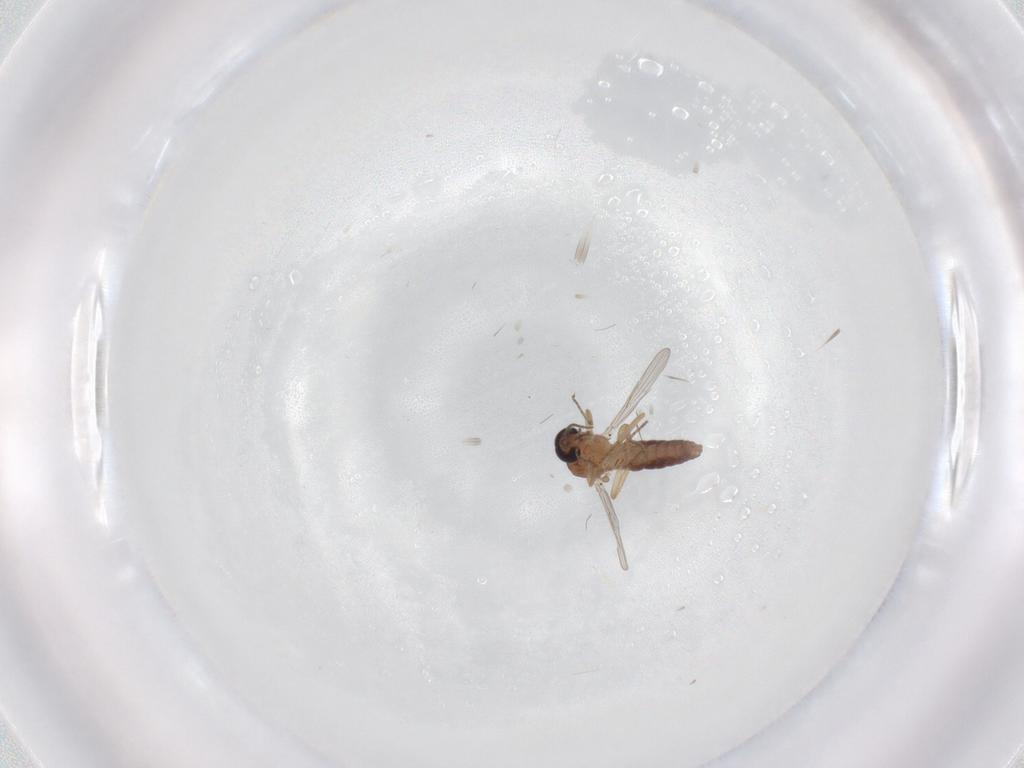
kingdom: Animalia
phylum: Arthropoda
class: Insecta
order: Diptera
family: Ceratopogonidae
